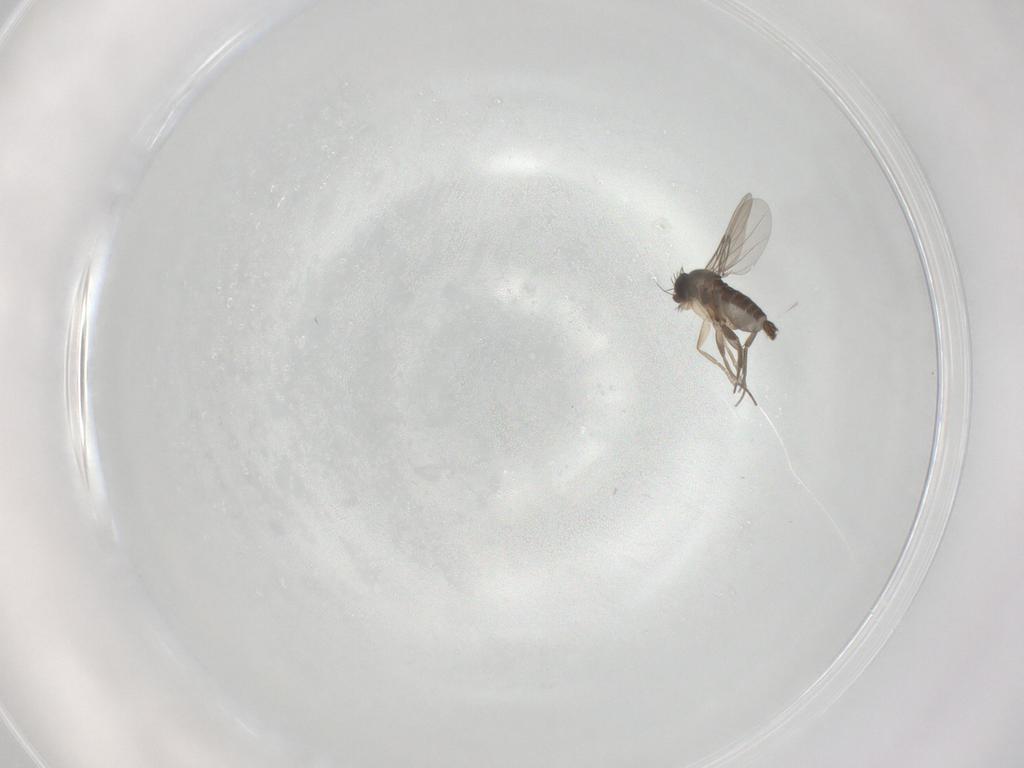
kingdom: Animalia
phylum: Arthropoda
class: Insecta
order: Diptera
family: Phoridae
